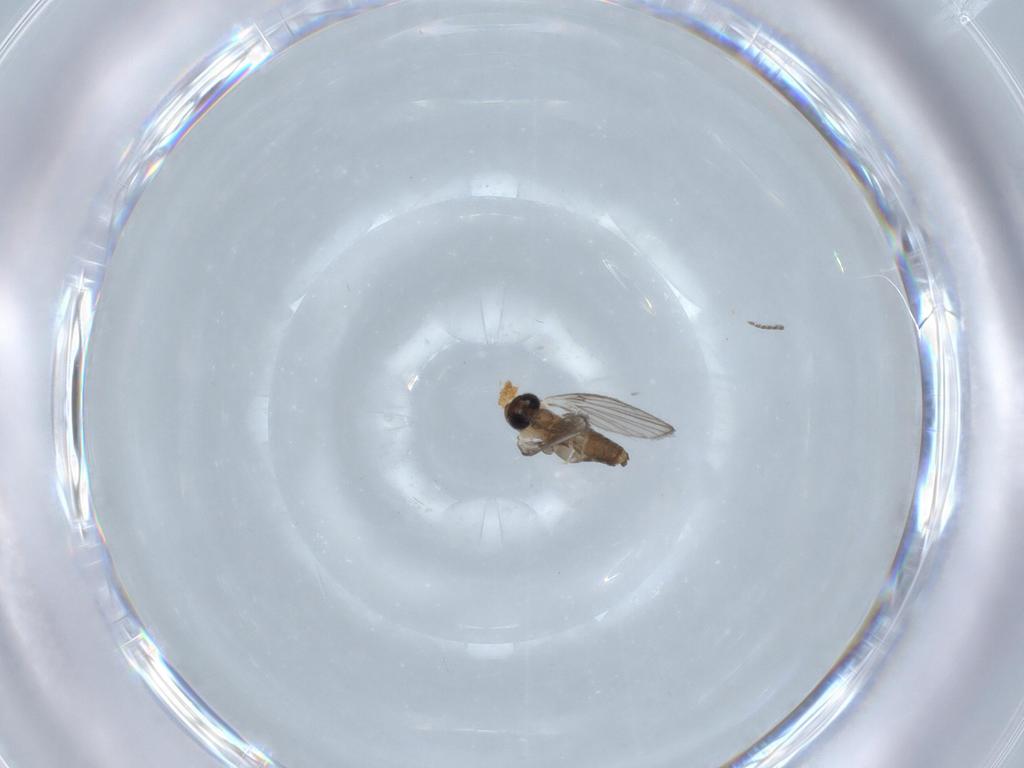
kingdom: Animalia
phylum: Arthropoda
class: Insecta
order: Diptera
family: Psychodidae
